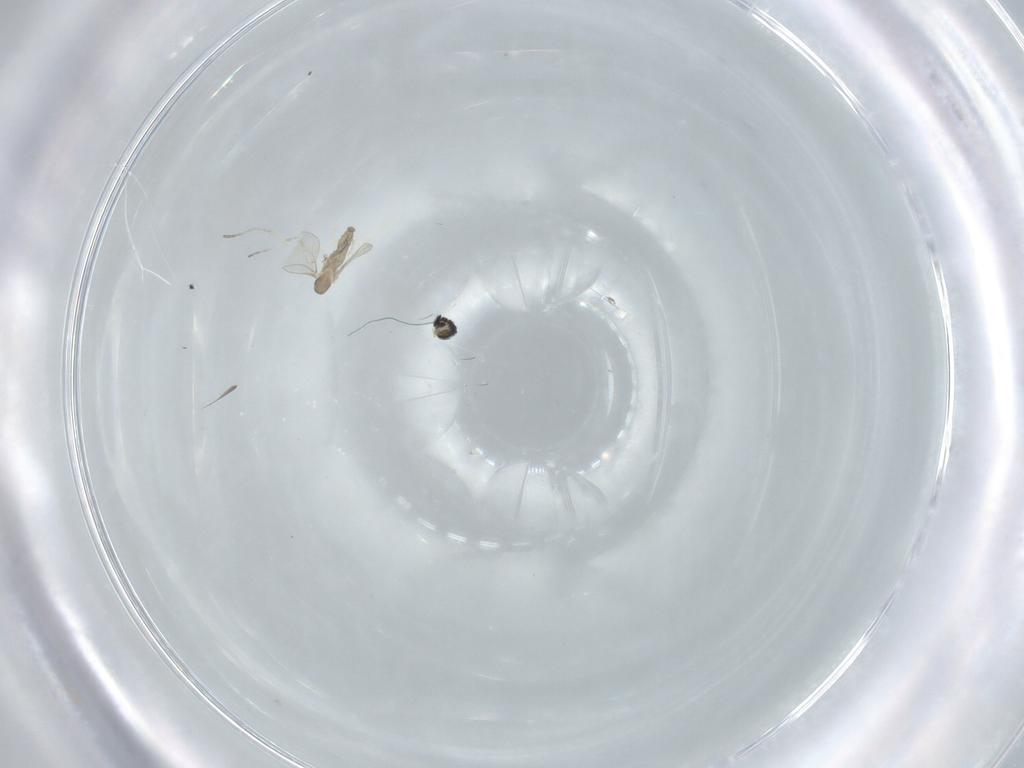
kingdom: Animalia
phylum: Arthropoda
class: Insecta
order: Diptera
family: Cecidomyiidae
